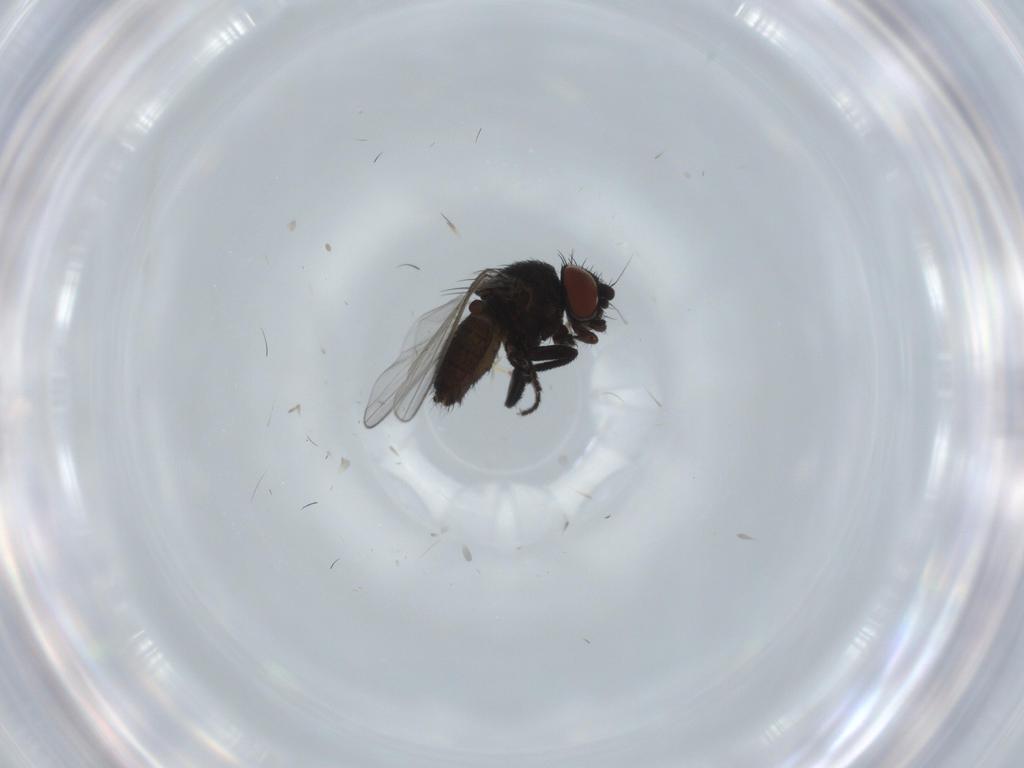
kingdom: Animalia
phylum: Arthropoda
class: Insecta
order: Diptera
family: Milichiidae
